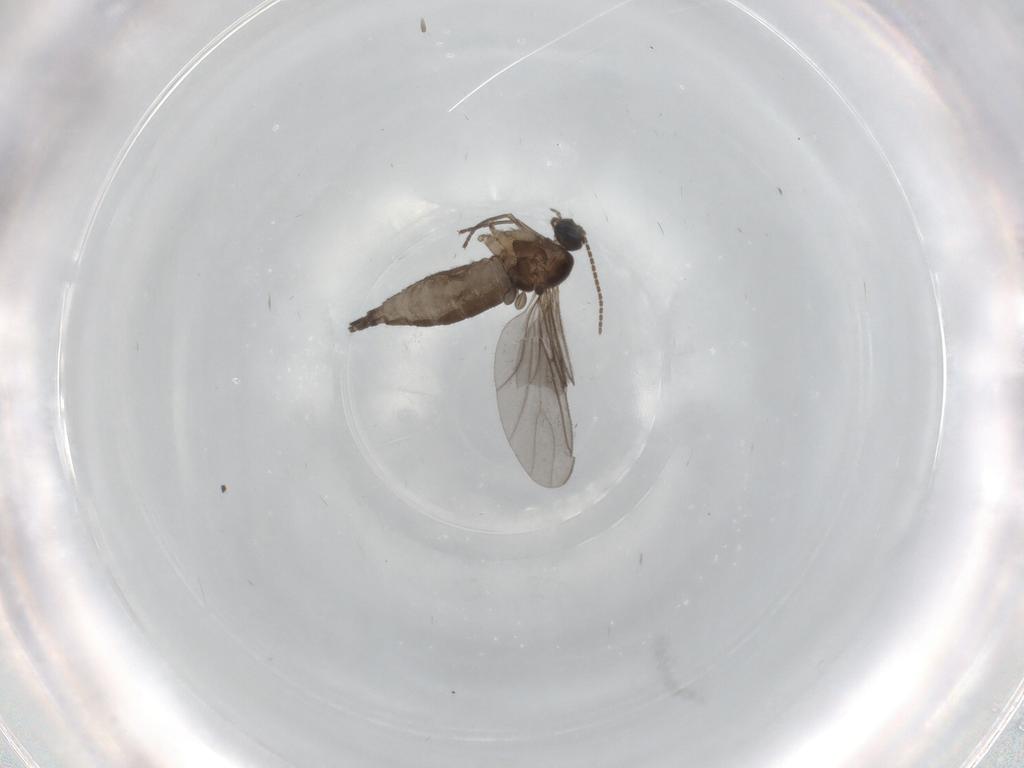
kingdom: Animalia
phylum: Arthropoda
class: Insecta
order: Diptera
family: Sciaridae
